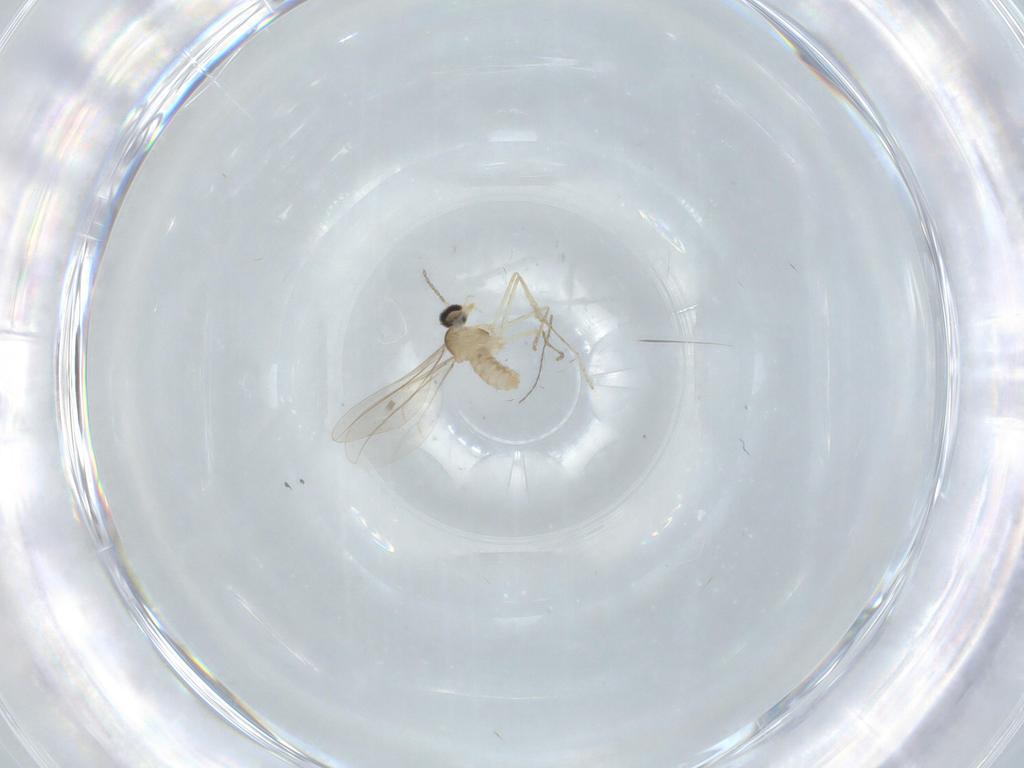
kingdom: Animalia
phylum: Arthropoda
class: Insecta
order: Diptera
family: Cecidomyiidae
